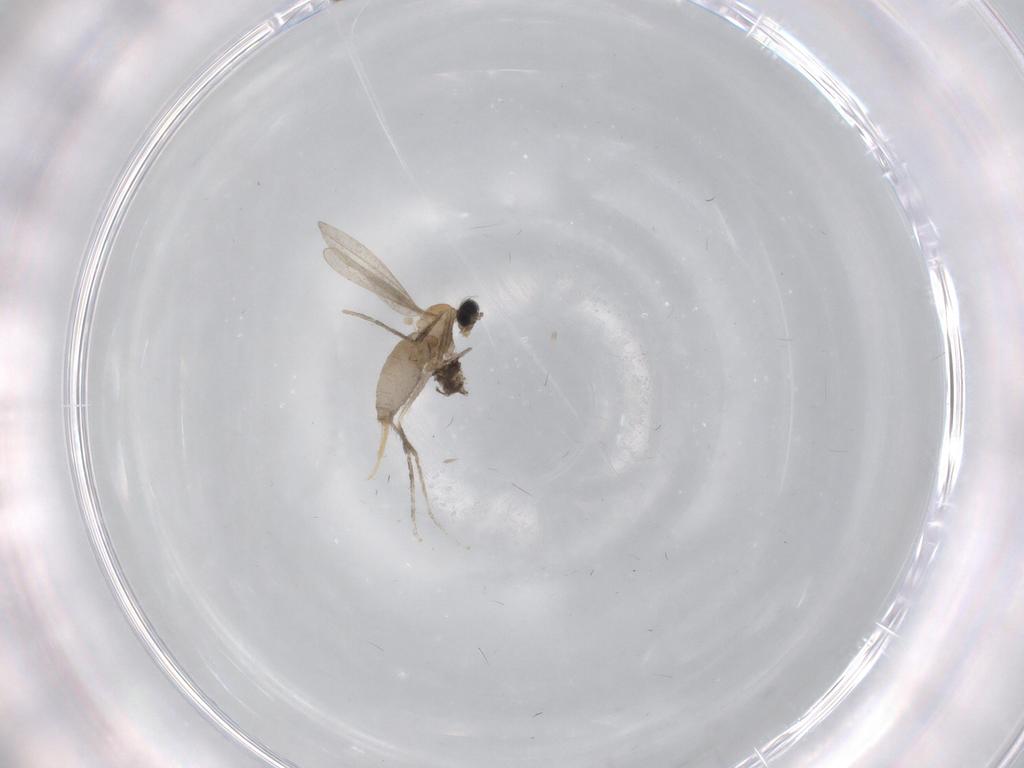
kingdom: Animalia
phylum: Arthropoda
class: Insecta
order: Diptera
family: Cecidomyiidae
